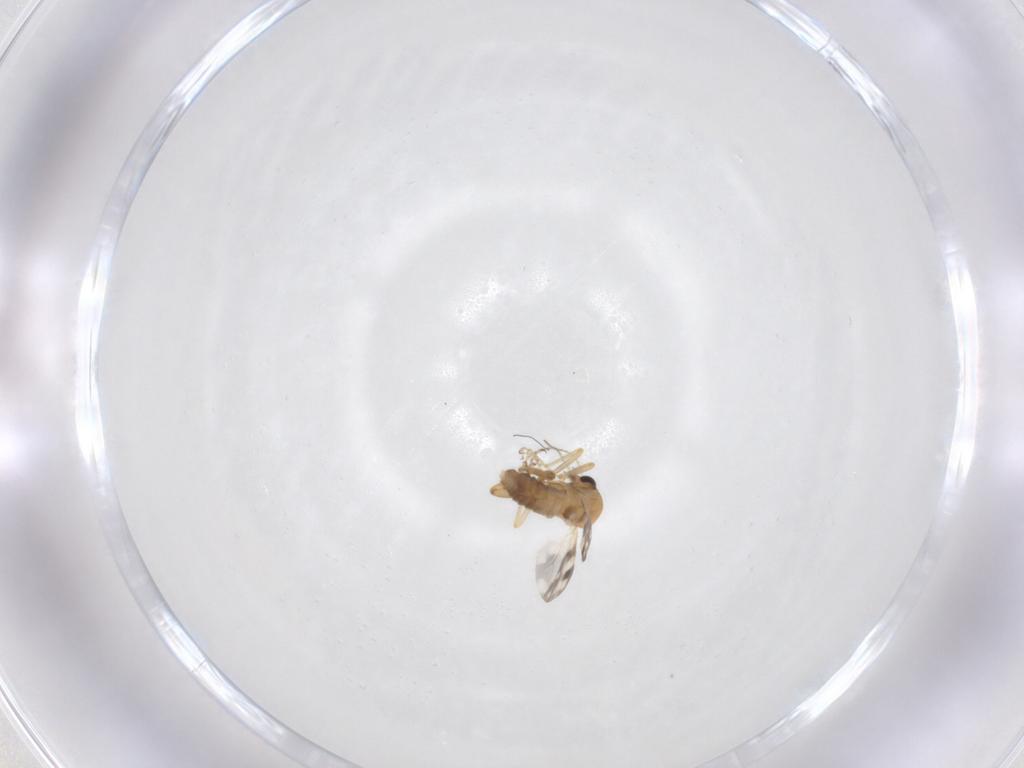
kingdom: Animalia
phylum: Arthropoda
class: Insecta
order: Diptera
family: Ceratopogonidae
